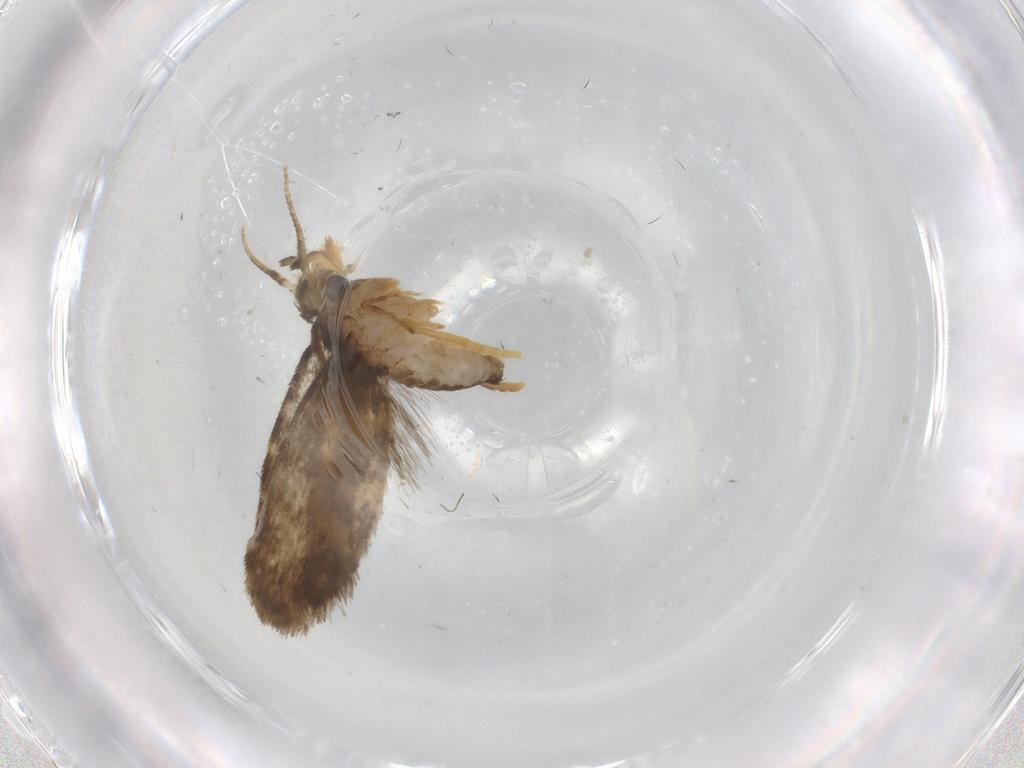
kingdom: Animalia
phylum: Arthropoda
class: Insecta
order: Lepidoptera
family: Psychidae
